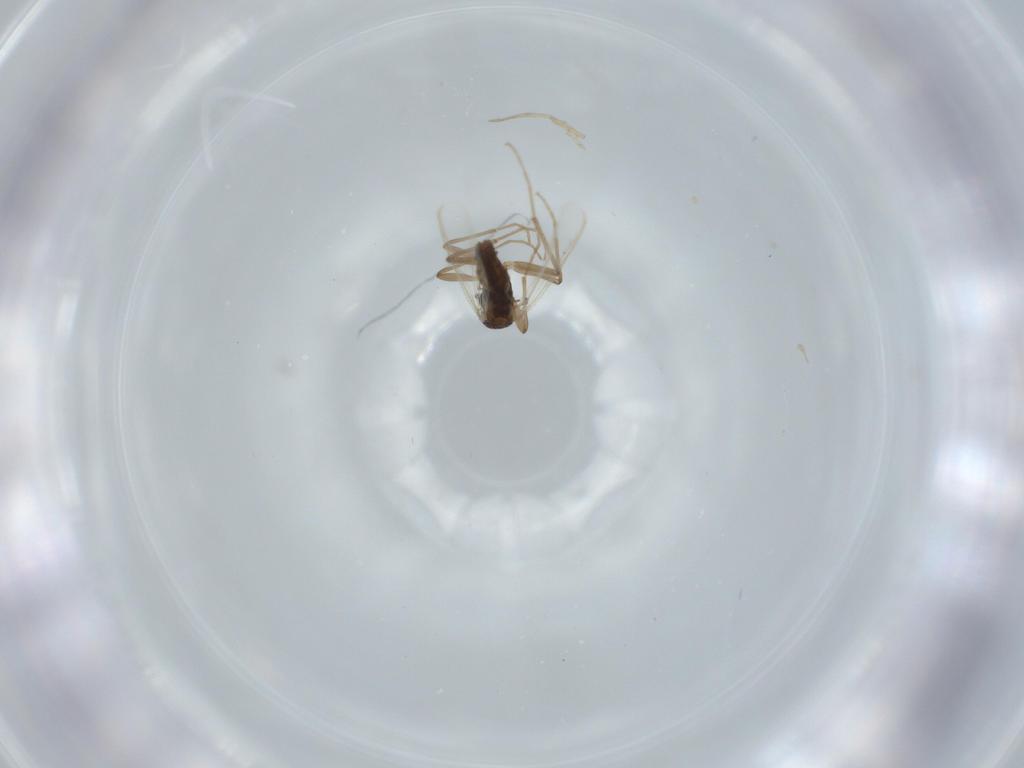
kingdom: Animalia
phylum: Arthropoda
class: Insecta
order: Diptera
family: Chironomidae
